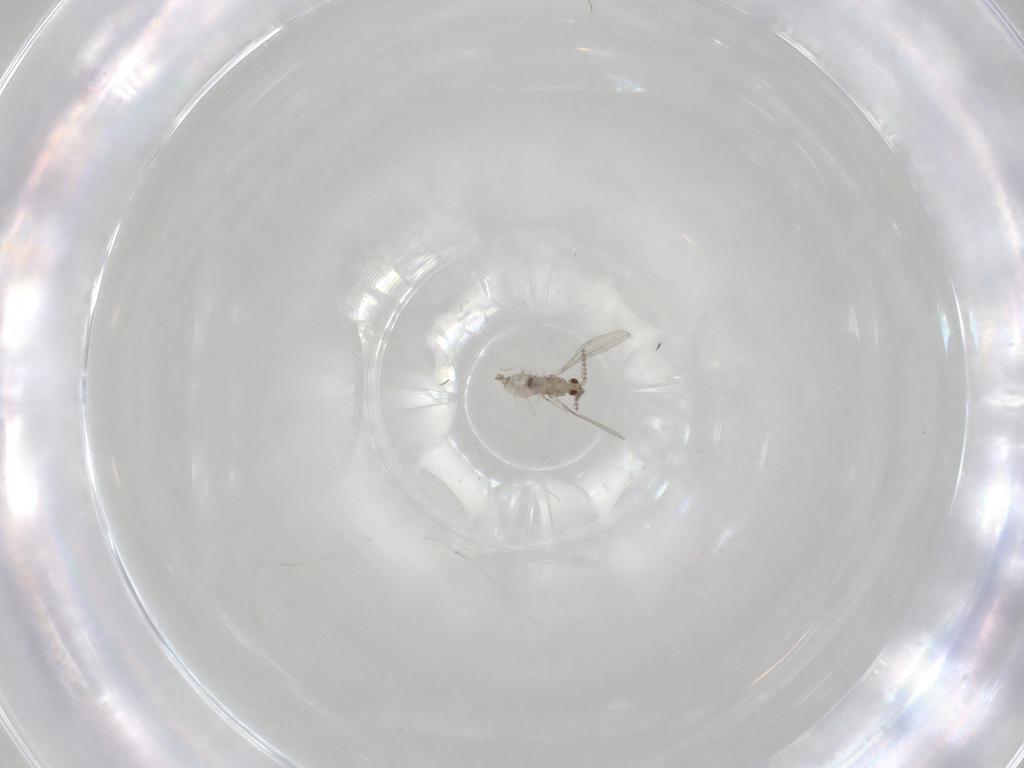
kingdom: Animalia
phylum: Arthropoda
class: Insecta
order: Diptera
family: Cecidomyiidae
